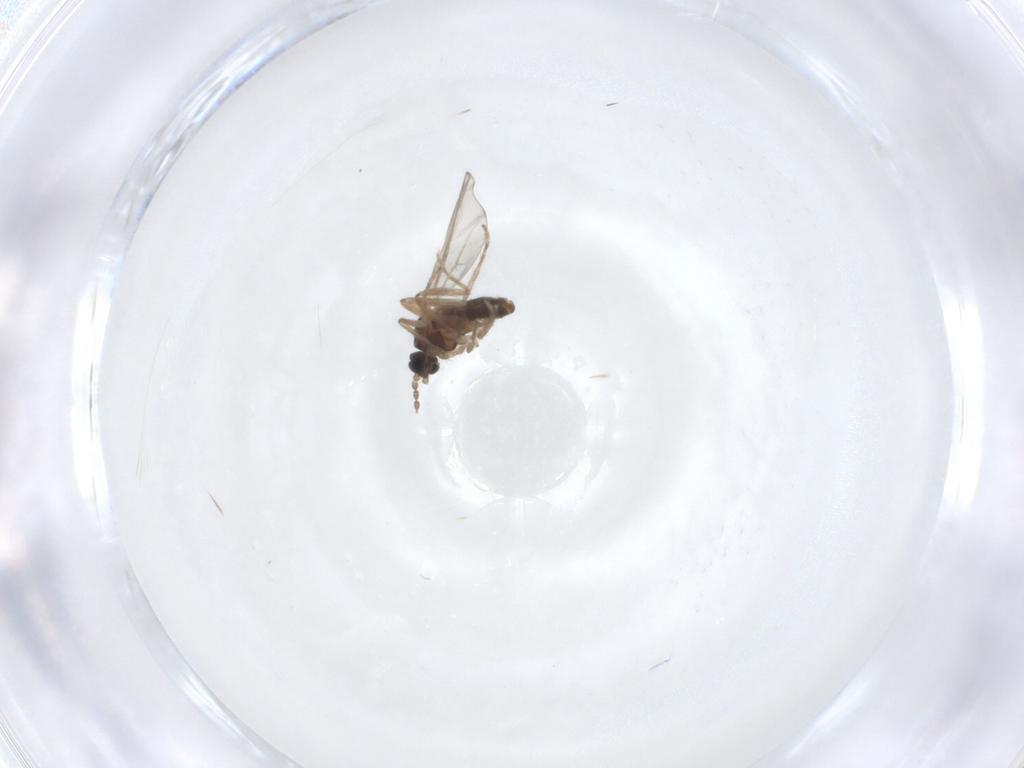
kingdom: Animalia
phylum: Arthropoda
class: Insecta
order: Diptera
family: Cecidomyiidae
